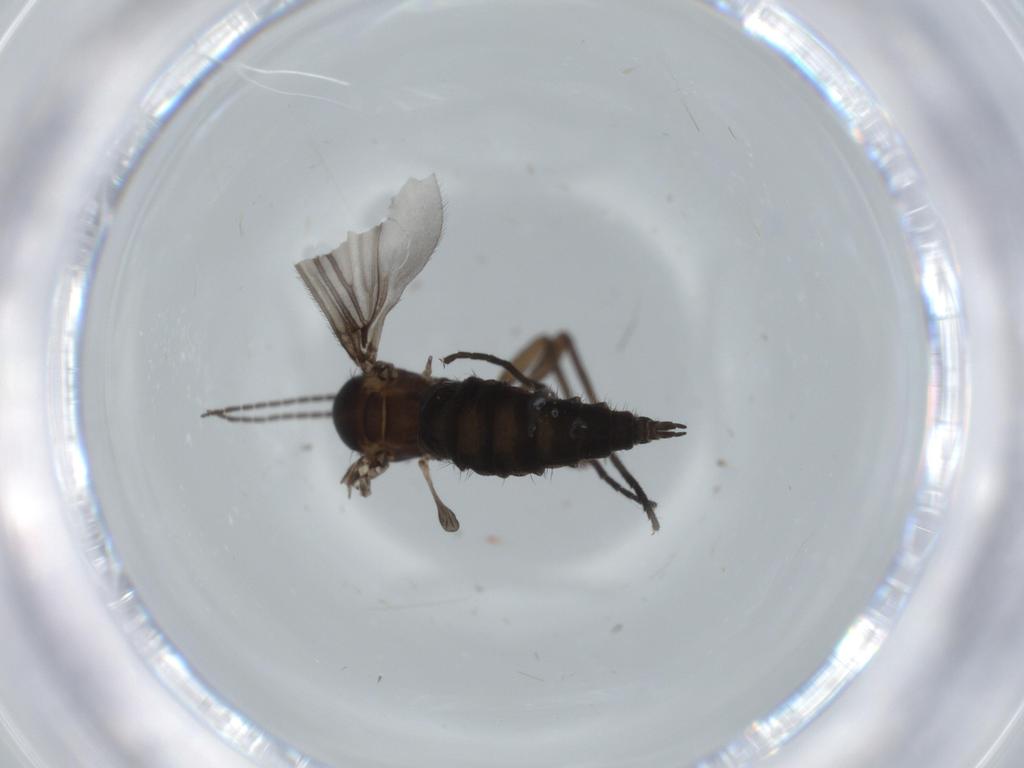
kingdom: Animalia
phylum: Arthropoda
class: Insecta
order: Diptera
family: Sciaridae
